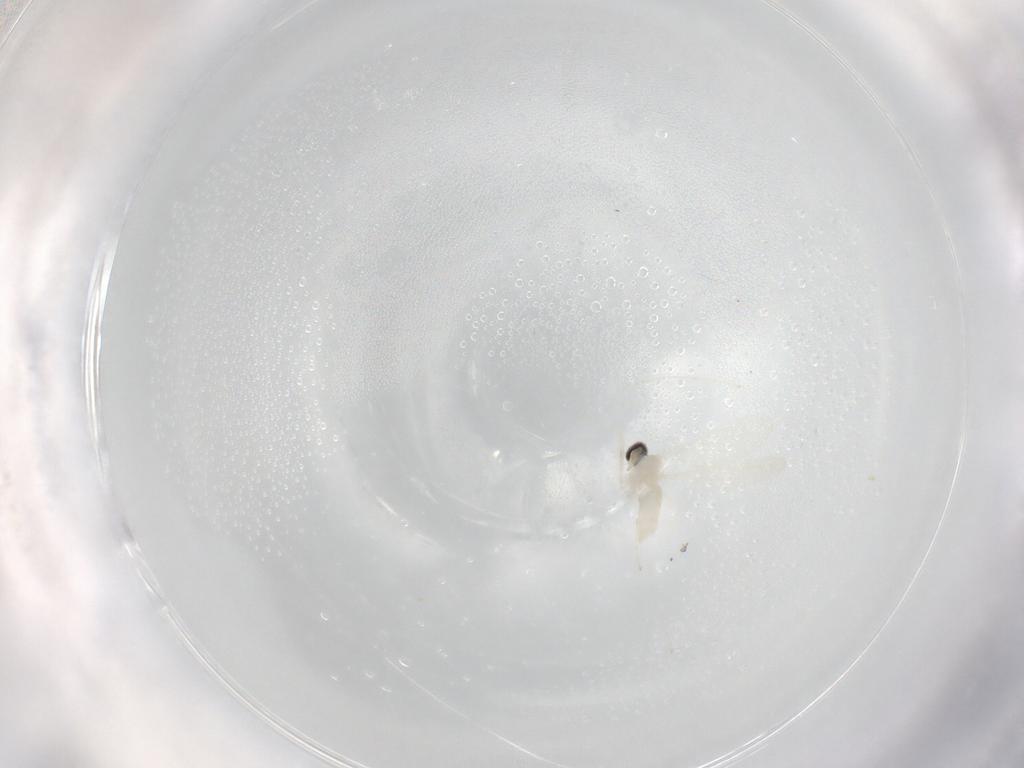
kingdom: Animalia
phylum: Arthropoda
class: Insecta
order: Diptera
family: Cecidomyiidae
